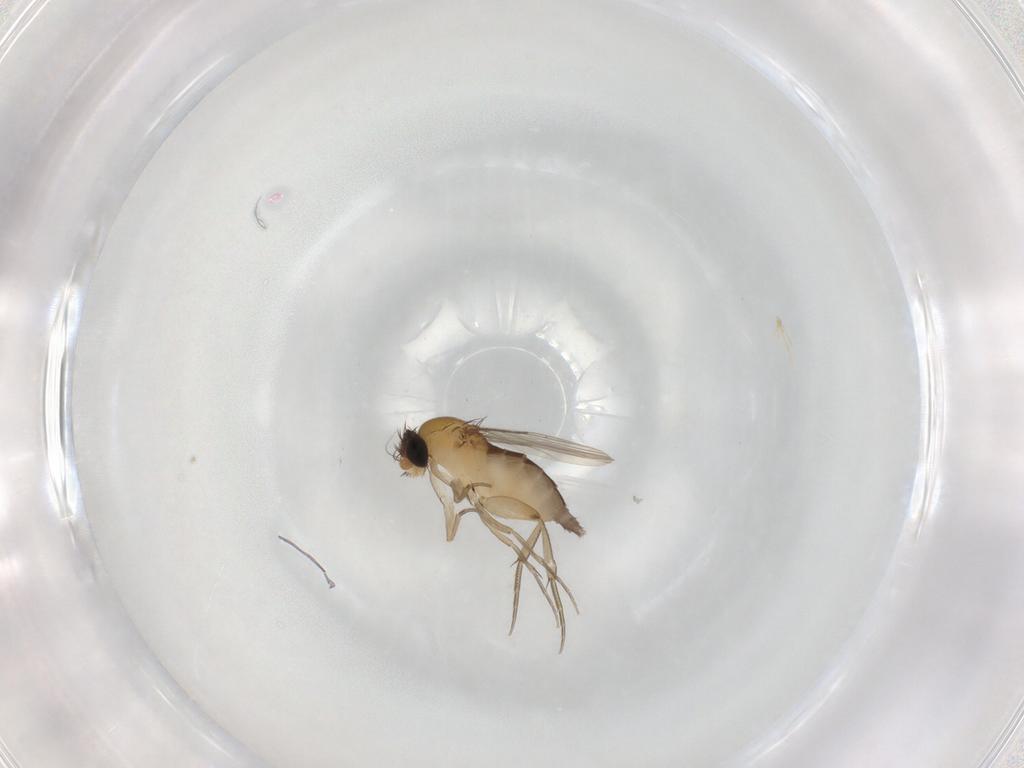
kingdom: Animalia
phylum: Arthropoda
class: Insecta
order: Diptera
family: Phoridae
